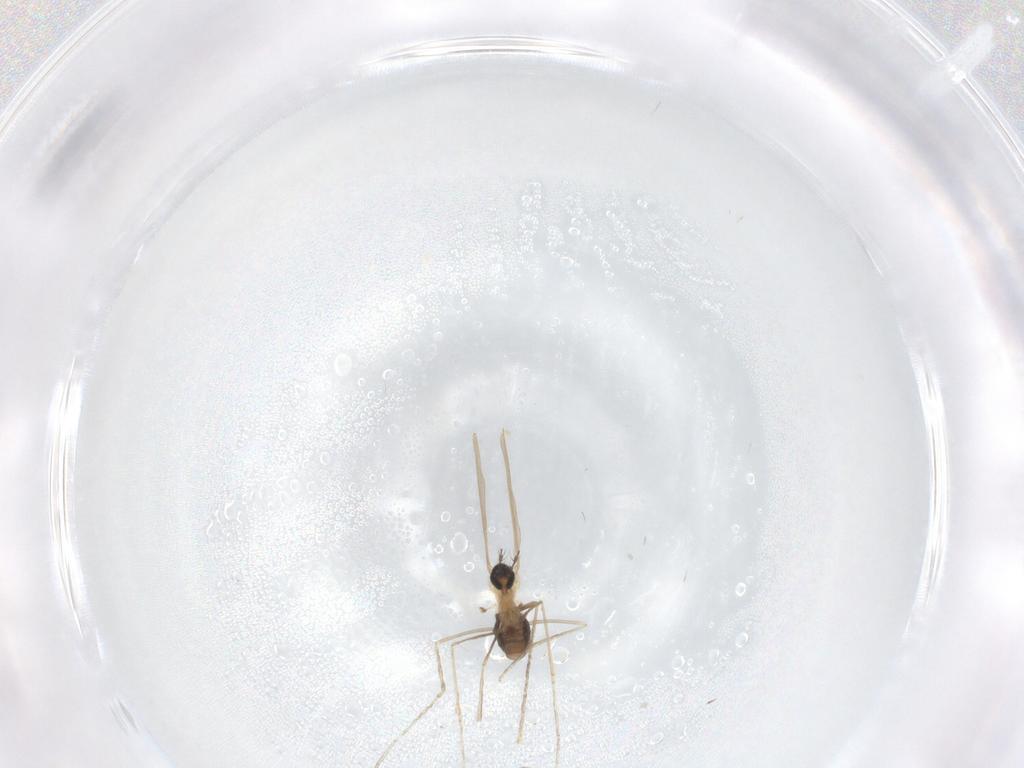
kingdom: Animalia
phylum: Arthropoda
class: Insecta
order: Diptera
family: Cecidomyiidae
